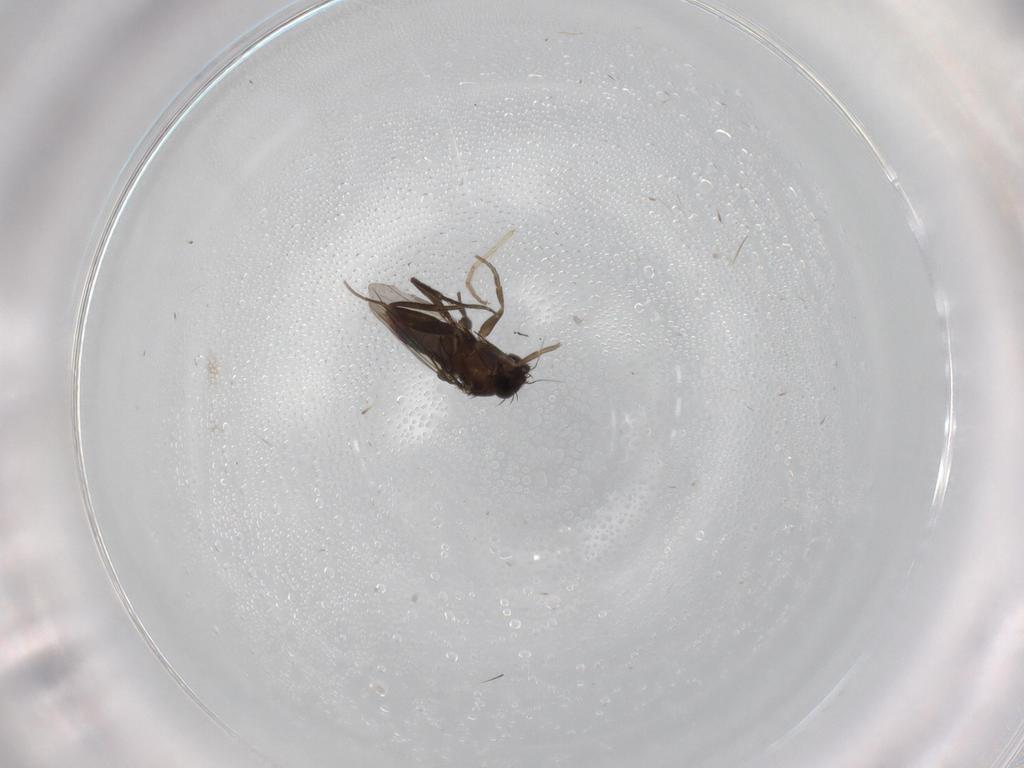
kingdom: Animalia
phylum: Arthropoda
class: Insecta
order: Diptera
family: Chironomidae
